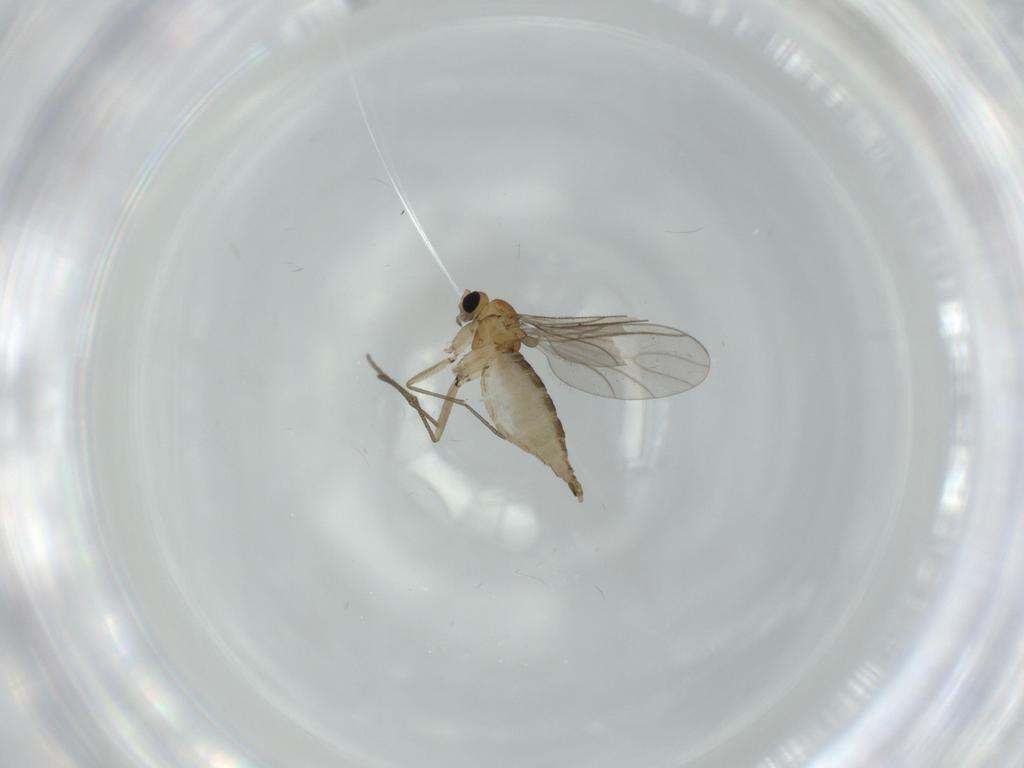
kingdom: Animalia
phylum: Arthropoda
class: Insecta
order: Diptera
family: Sciaridae
